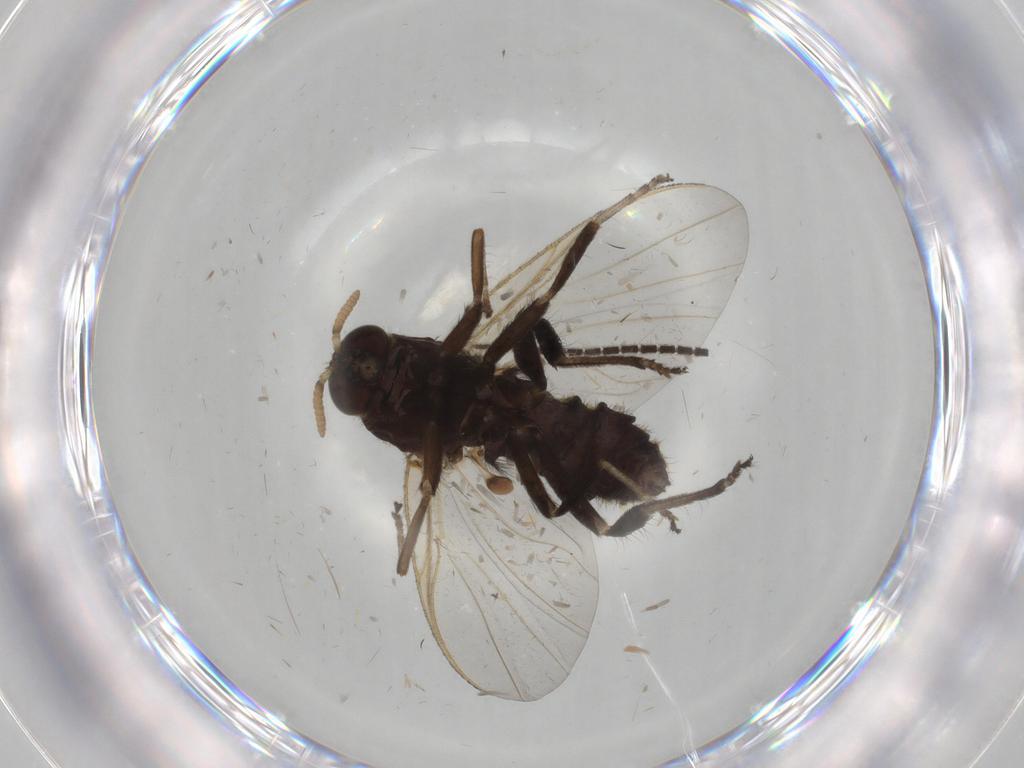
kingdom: Animalia
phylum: Arthropoda
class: Insecta
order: Diptera
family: Phoridae
